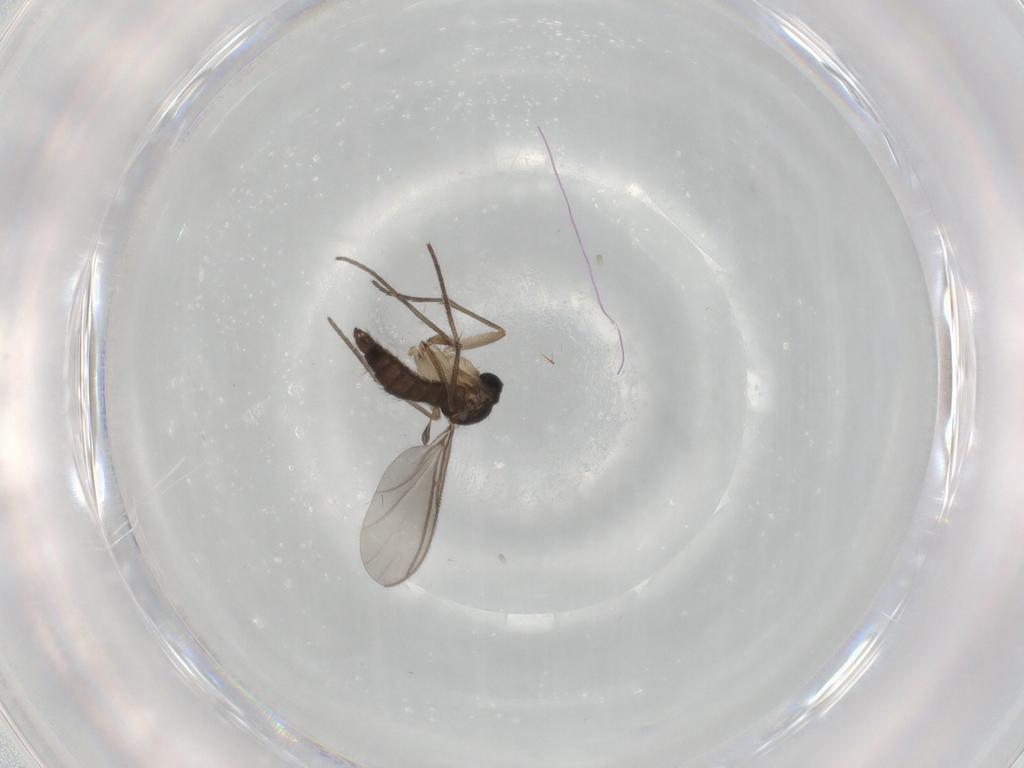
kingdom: Animalia
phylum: Arthropoda
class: Insecta
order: Diptera
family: Sciaridae
